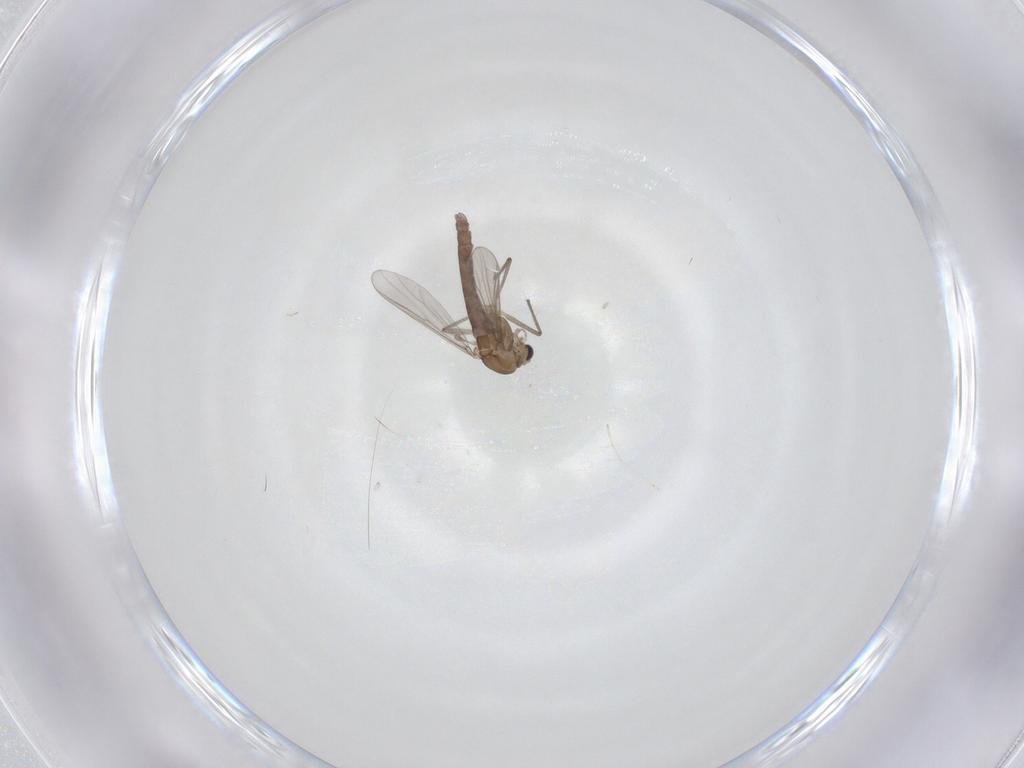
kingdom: Animalia
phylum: Arthropoda
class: Insecta
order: Diptera
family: Chironomidae
